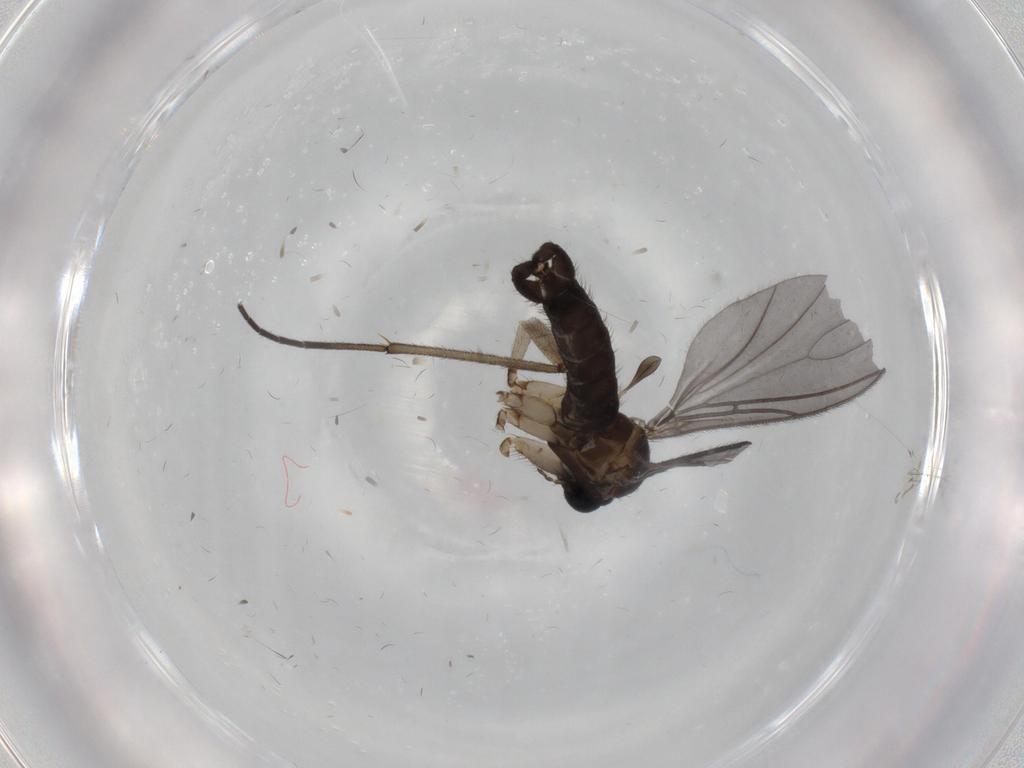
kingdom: Animalia
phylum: Arthropoda
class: Insecta
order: Diptera
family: Sciaridae
